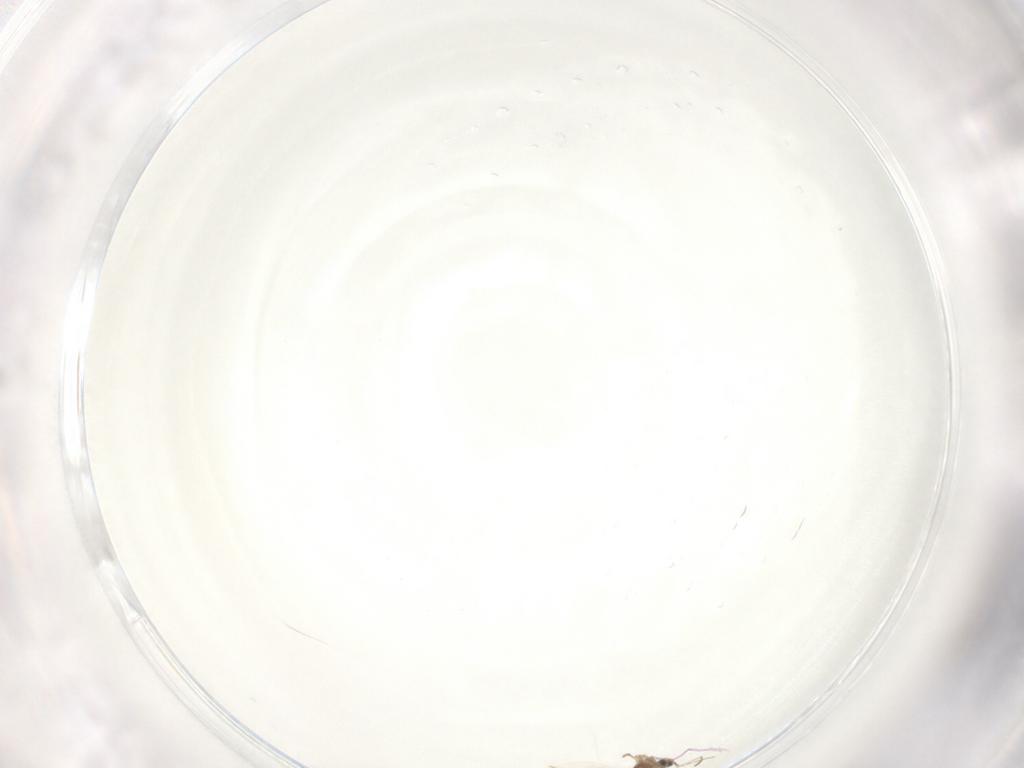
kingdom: Animalia
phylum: Arthropoda
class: Insecta
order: Diptera
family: Cecidomyiidae
